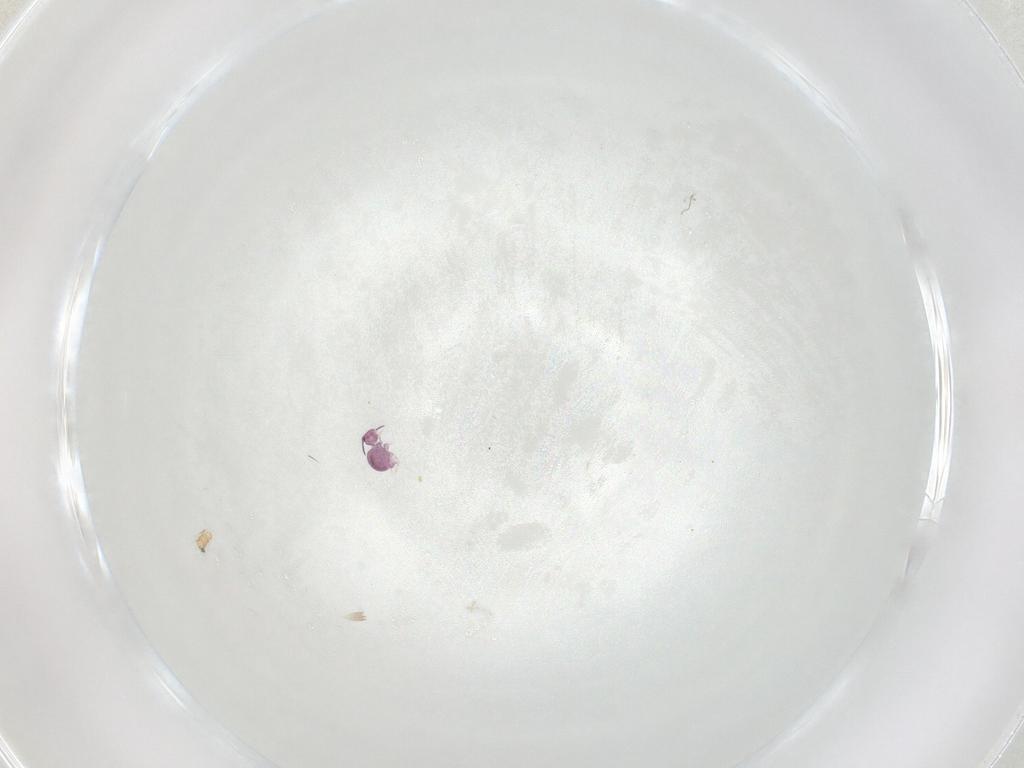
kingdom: Animalia
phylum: Arthropoda
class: Collembola
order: Symphypleona
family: Sminthurididae
